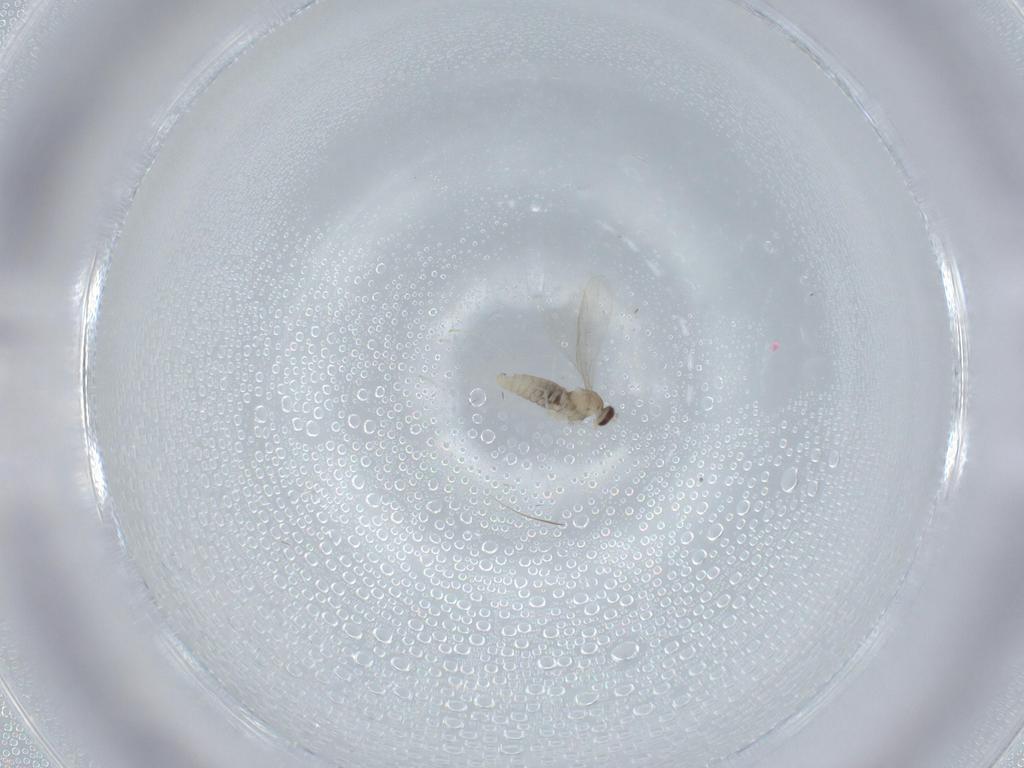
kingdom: Animalia
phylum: Arthropoda
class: Insecta
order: Diptera
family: Cecidomyiidae
